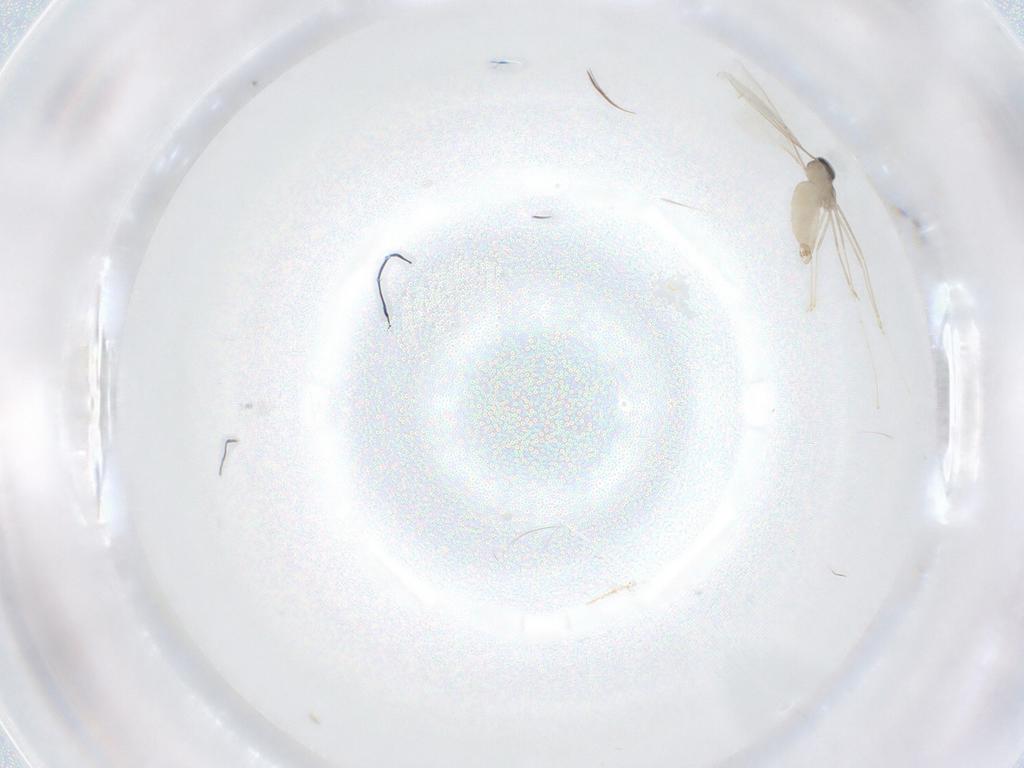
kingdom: Animalia
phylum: Arthropoda
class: Insecta
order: Diptera
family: Cecidomyiidae
